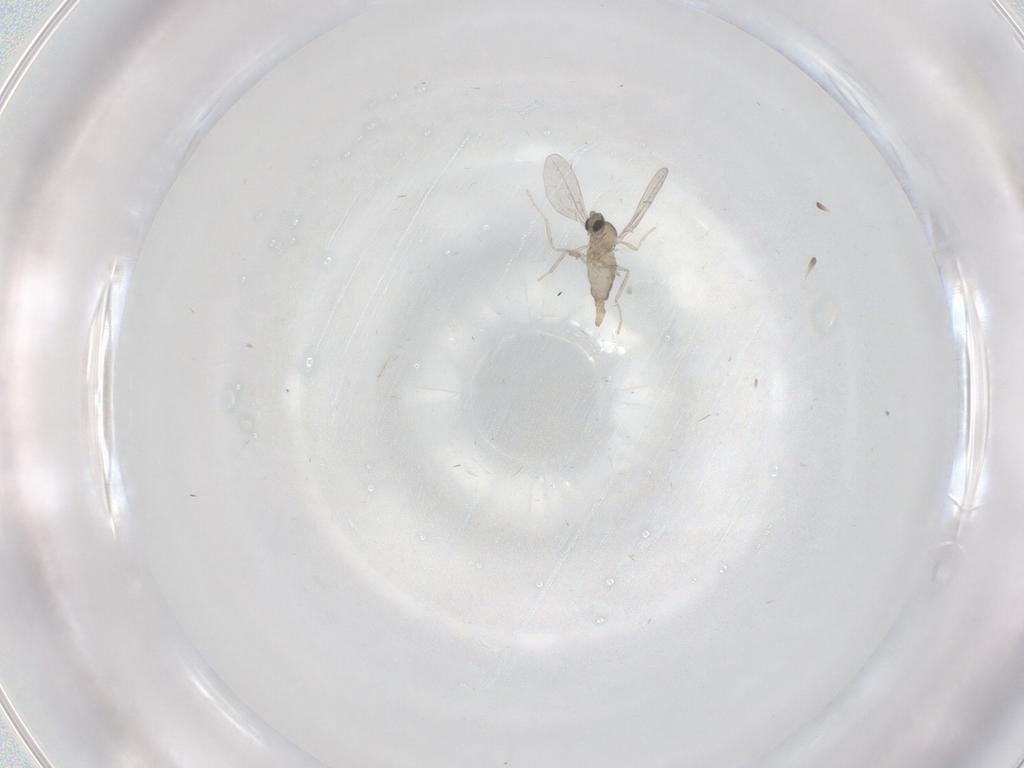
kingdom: Animalia
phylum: Arthropoda
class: Insecta
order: Diptera
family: Cecidomyiidae
